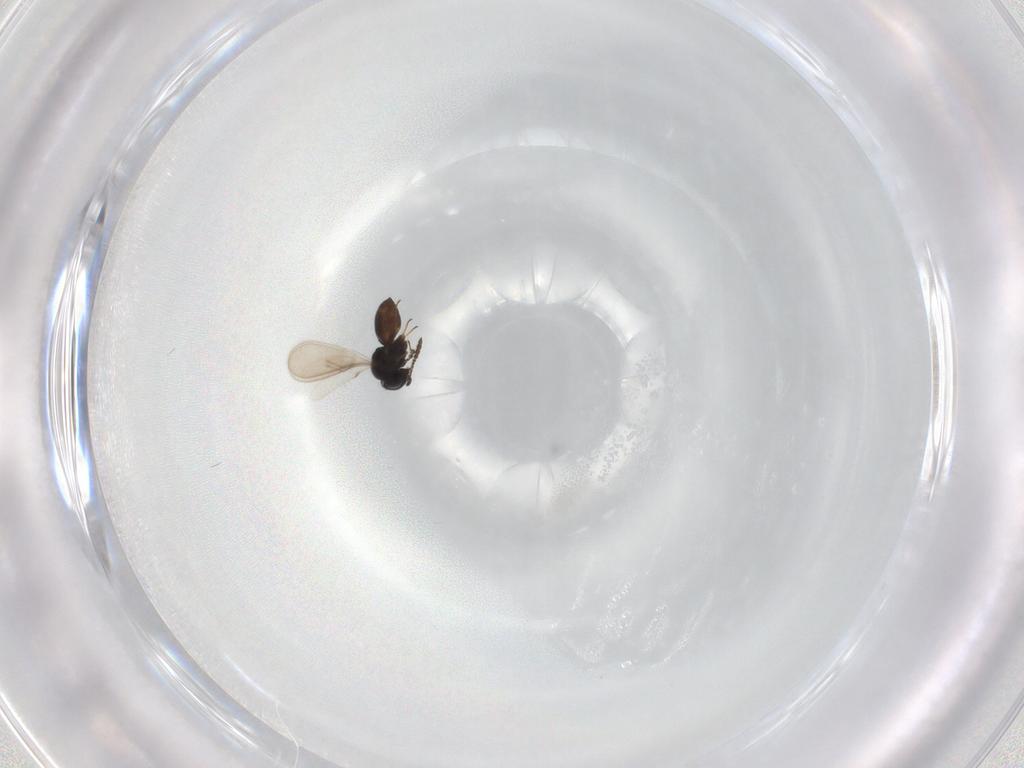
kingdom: Animalia
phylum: Arthropoda
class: Insecta
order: Hymenoptera
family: Scelionidae
